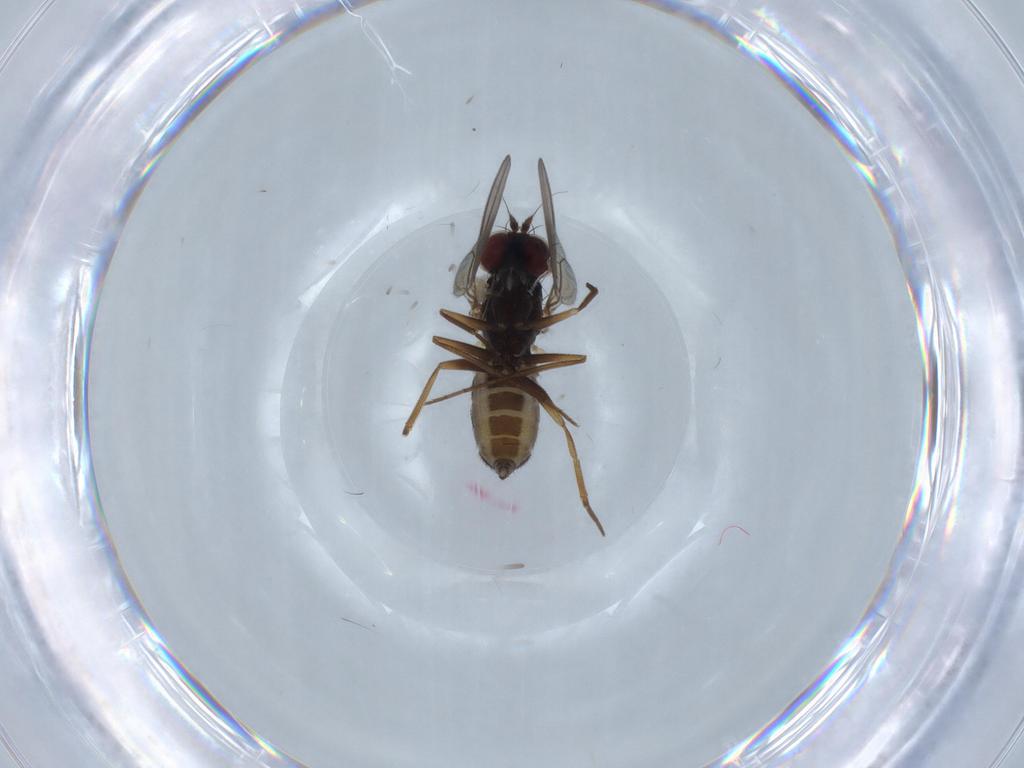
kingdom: Animalia
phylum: Arthropoda
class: Insecta
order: Diptera
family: Dolichopodidae
